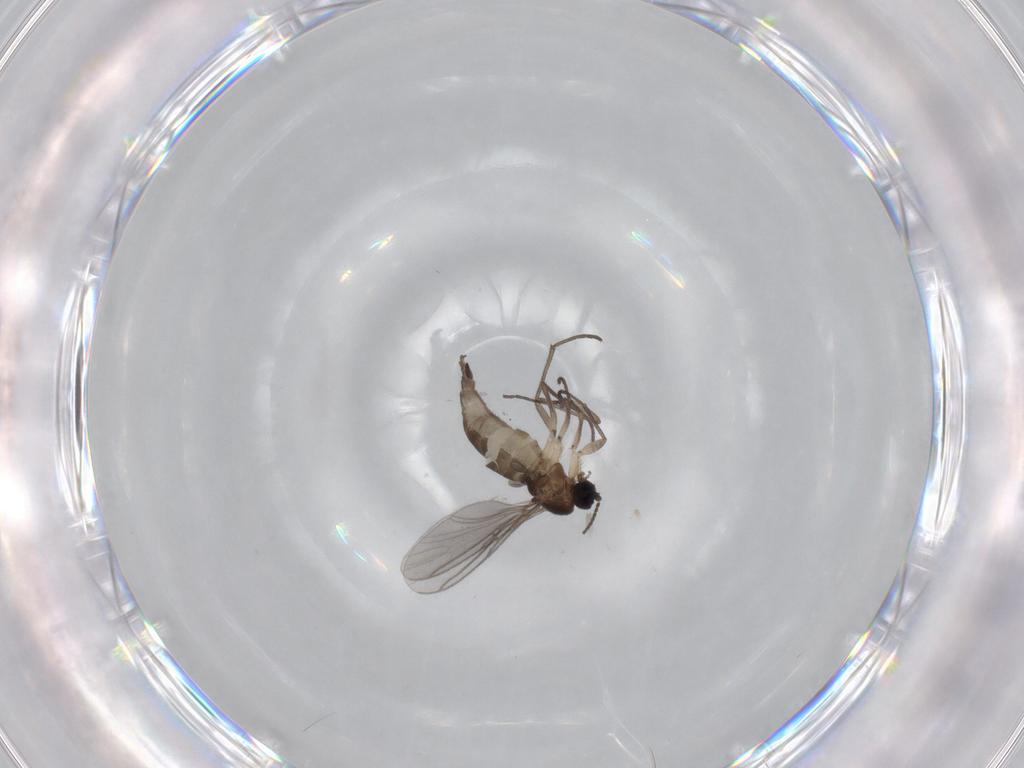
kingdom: Animalia
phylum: Arthropoda
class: Insecta
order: Diptera
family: Sciaridae
